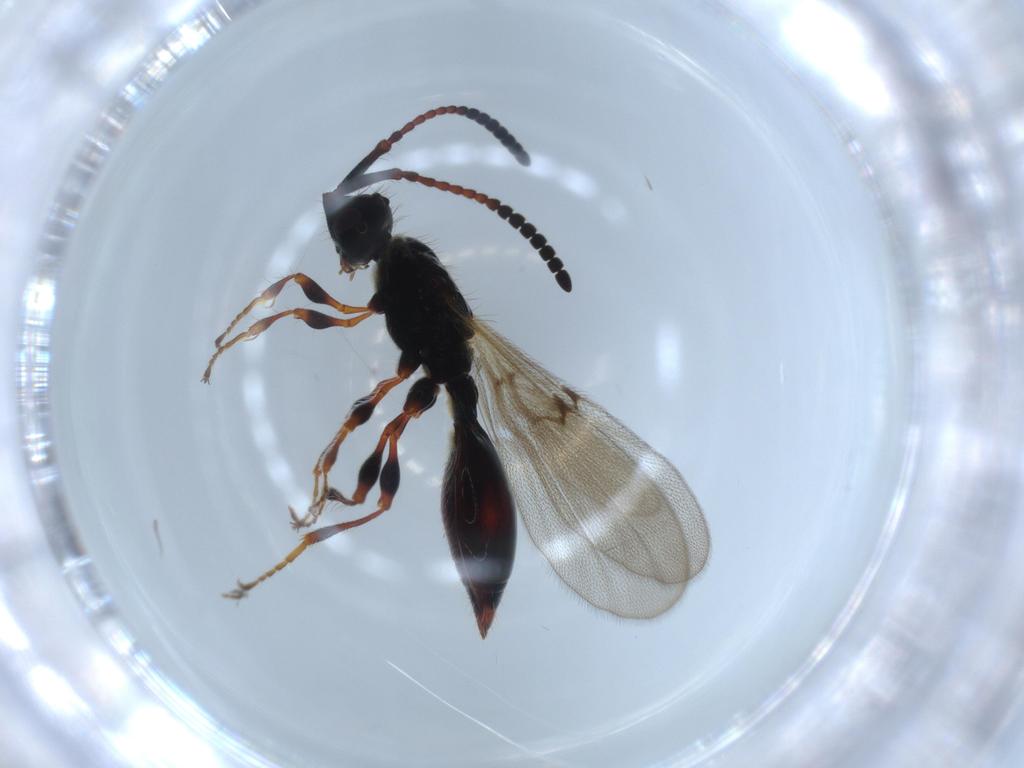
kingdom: Animalia
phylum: Arthropoda
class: Insecta
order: Hymenoptera
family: Diapriidae
